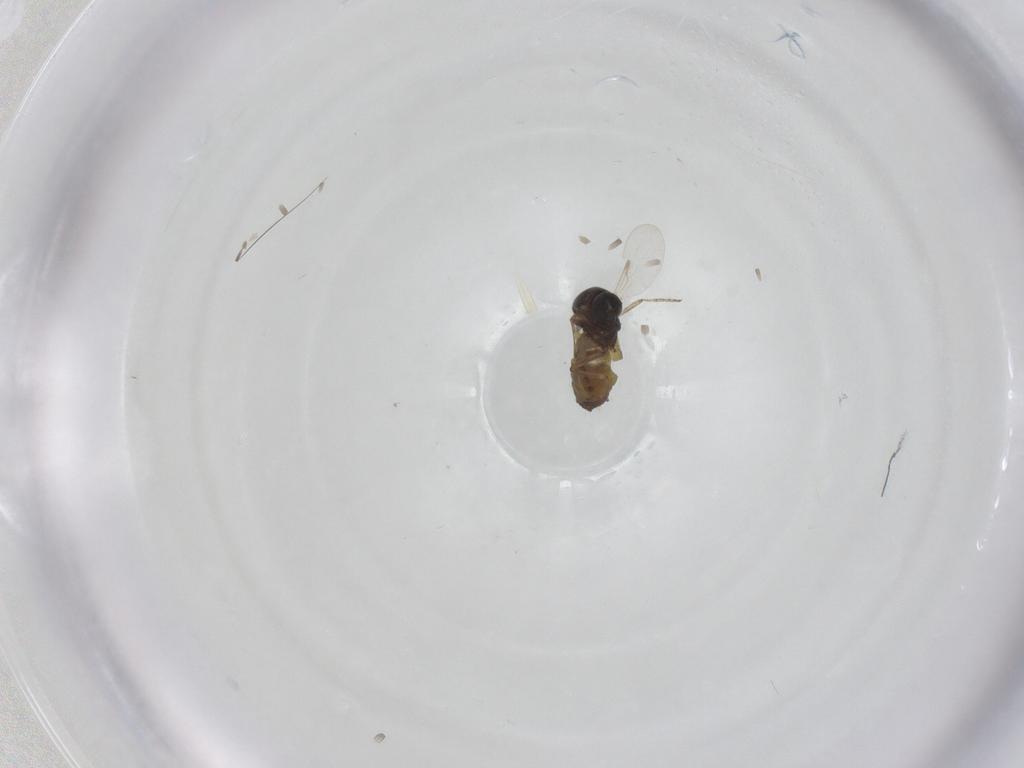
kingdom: Animalia
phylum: Arthropoda
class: Insecta
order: Diptera
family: Ceratopogonidae
